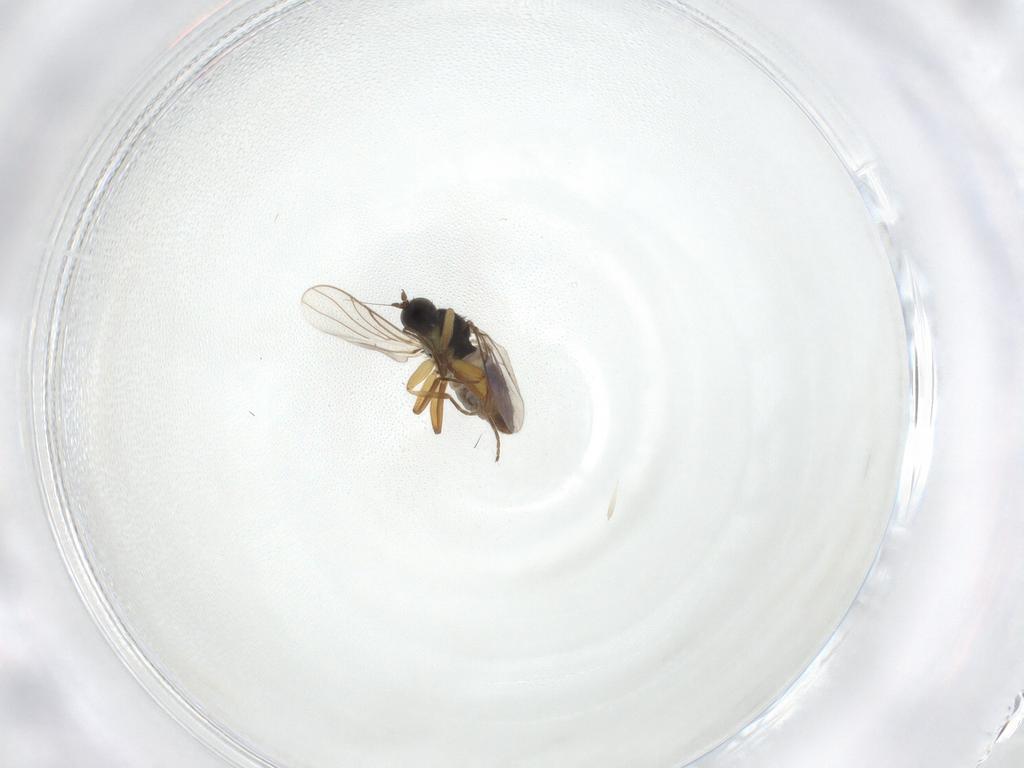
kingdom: Animalia
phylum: Arthropoda
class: Insecta
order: Diptera
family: Hybotidae
